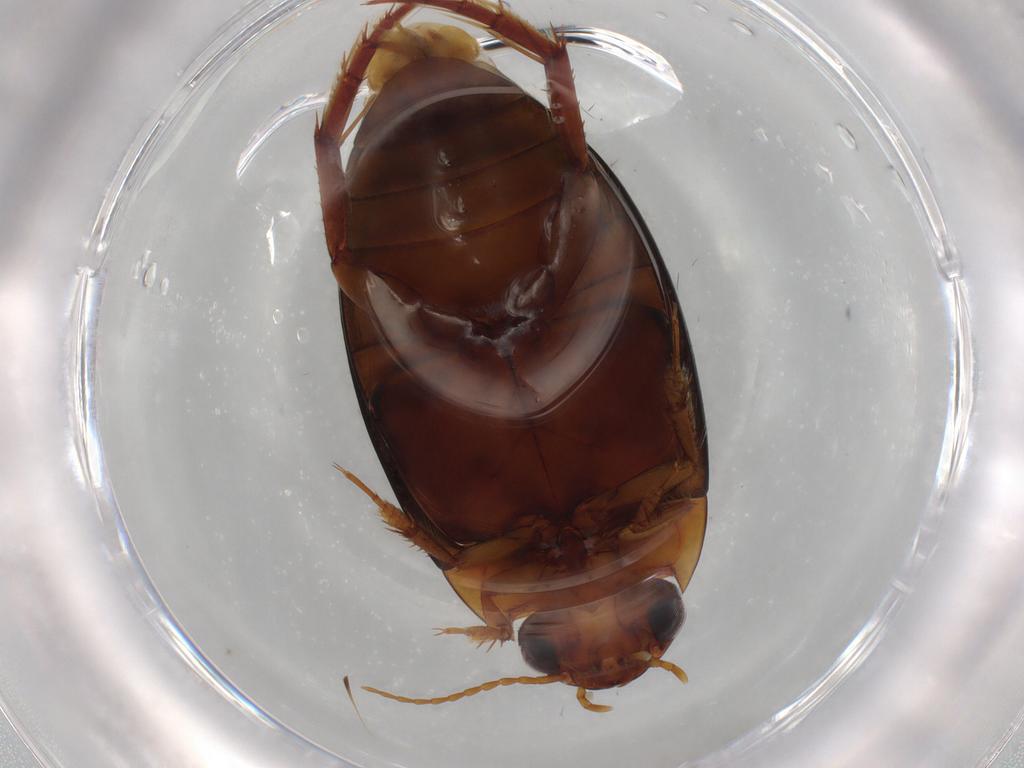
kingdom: Animalia
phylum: Arthropoda
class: Insecta
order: Coleoptera
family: Dytiscidae
